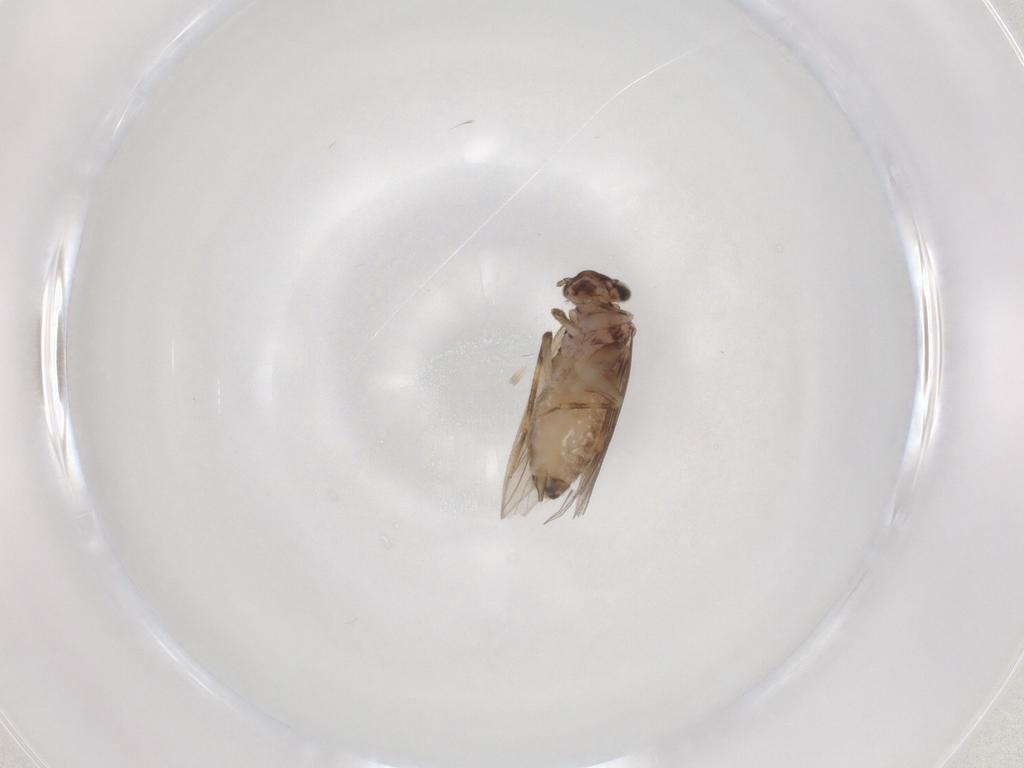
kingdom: Animalia
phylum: Arthropoda
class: Insecta
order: Psocodea
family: Lepidopsocidae
